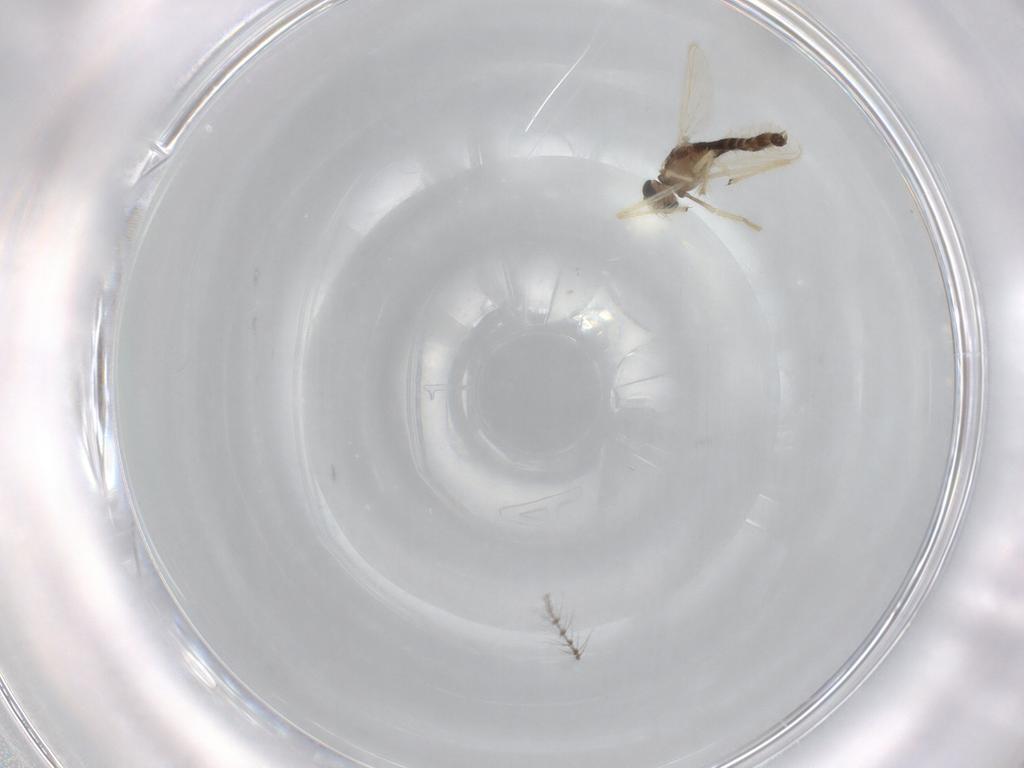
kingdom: Animalia
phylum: Arthropoda
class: Insecta
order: Diptera
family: Chironomidae
